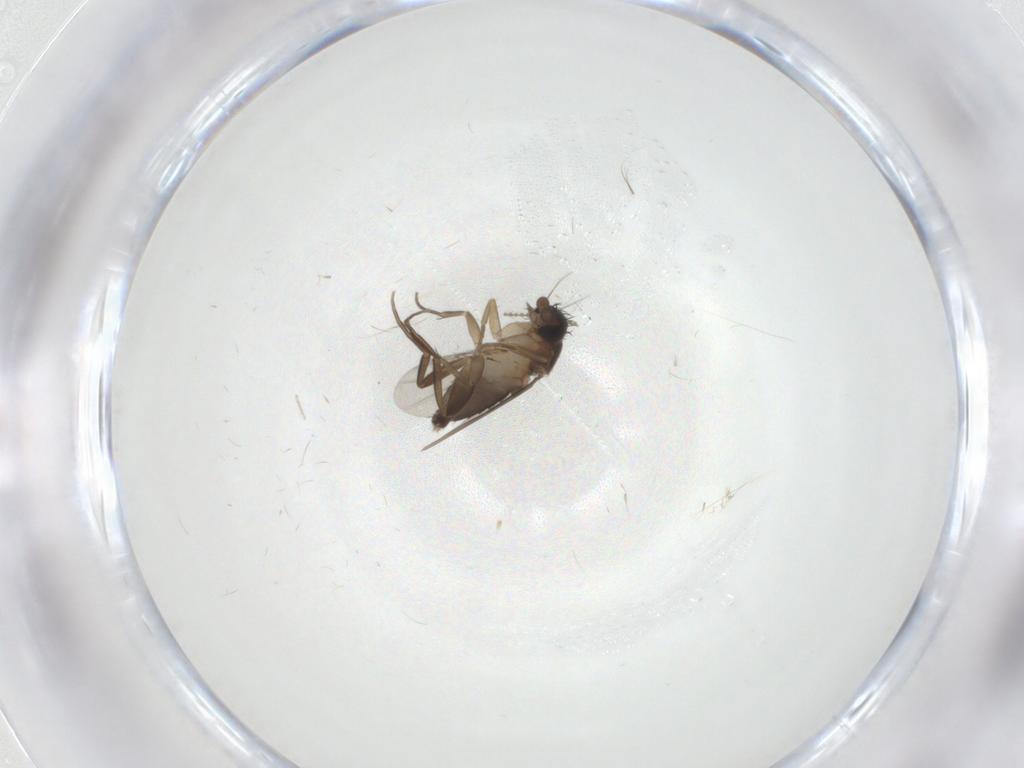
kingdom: Animalia
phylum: Arthropoda
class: Insecta
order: Diptera
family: Phoridae
